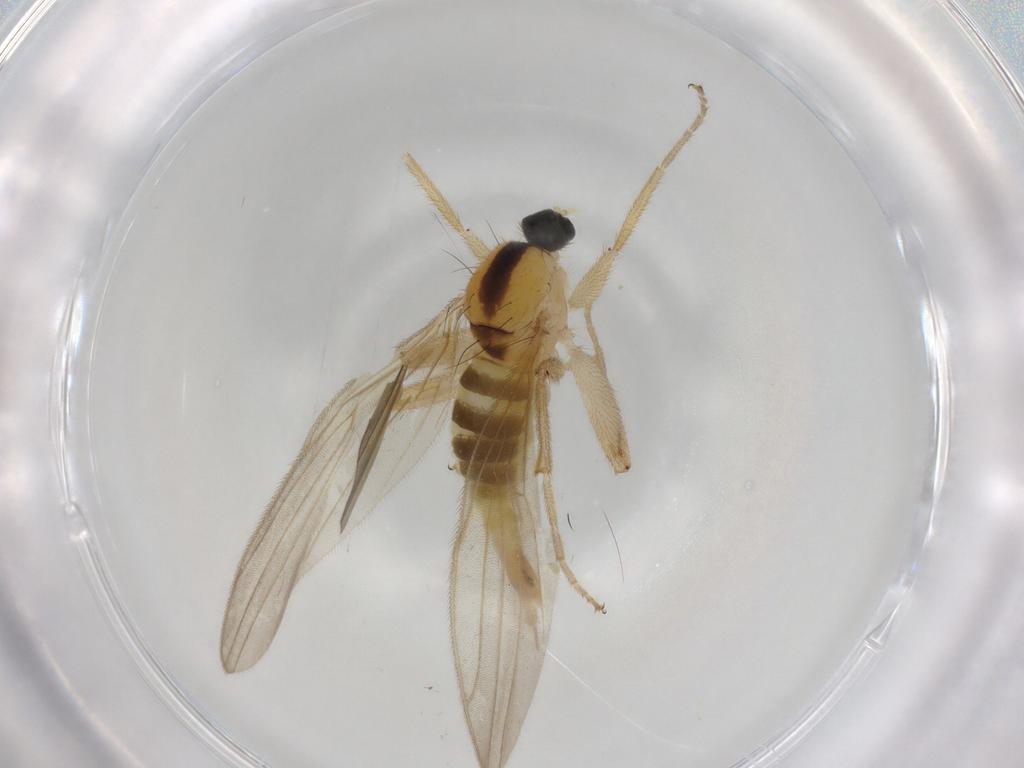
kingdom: Animalia
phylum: Arthropoda
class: Insecta
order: Diptera
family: Hybotidae
